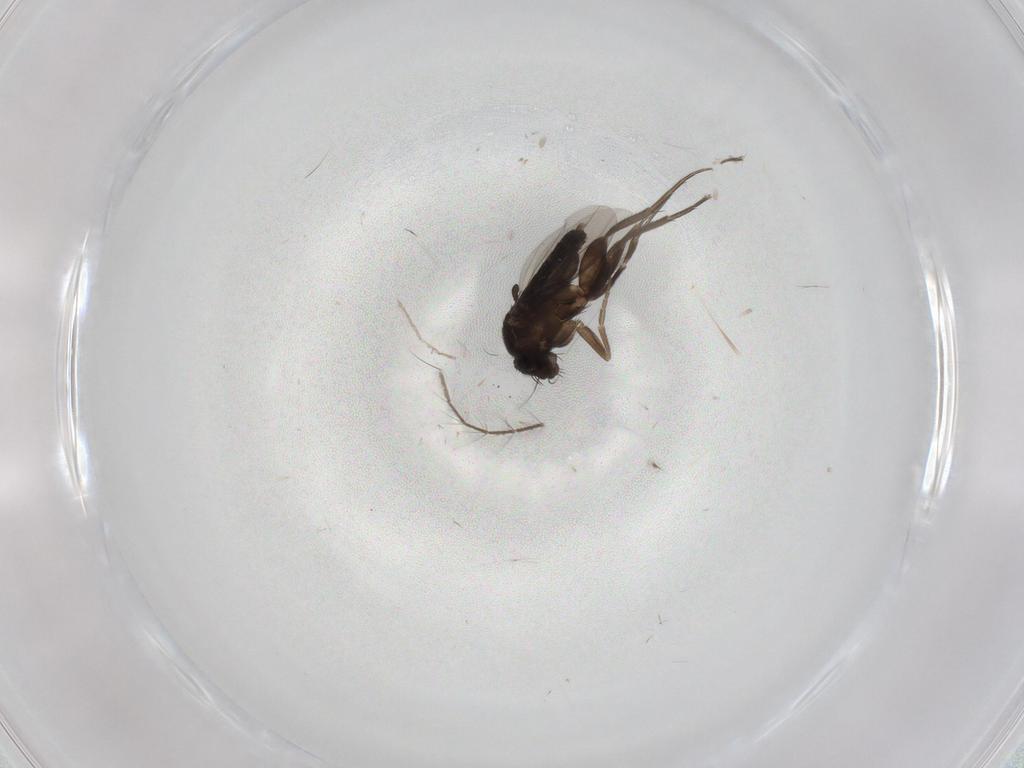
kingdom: Animalia
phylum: Arthropoda
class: Insecta
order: Diptera
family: Culicidae
